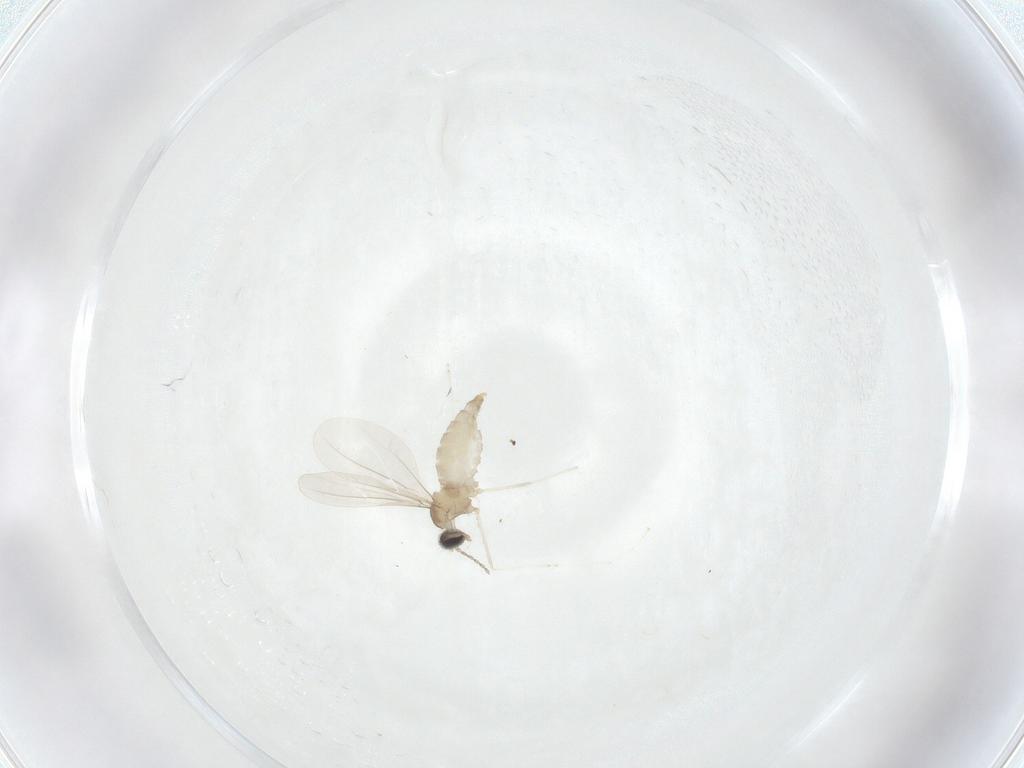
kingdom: Animalia
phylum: Arthropoda
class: Insecta
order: Diptera
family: Cecidomyiidae
